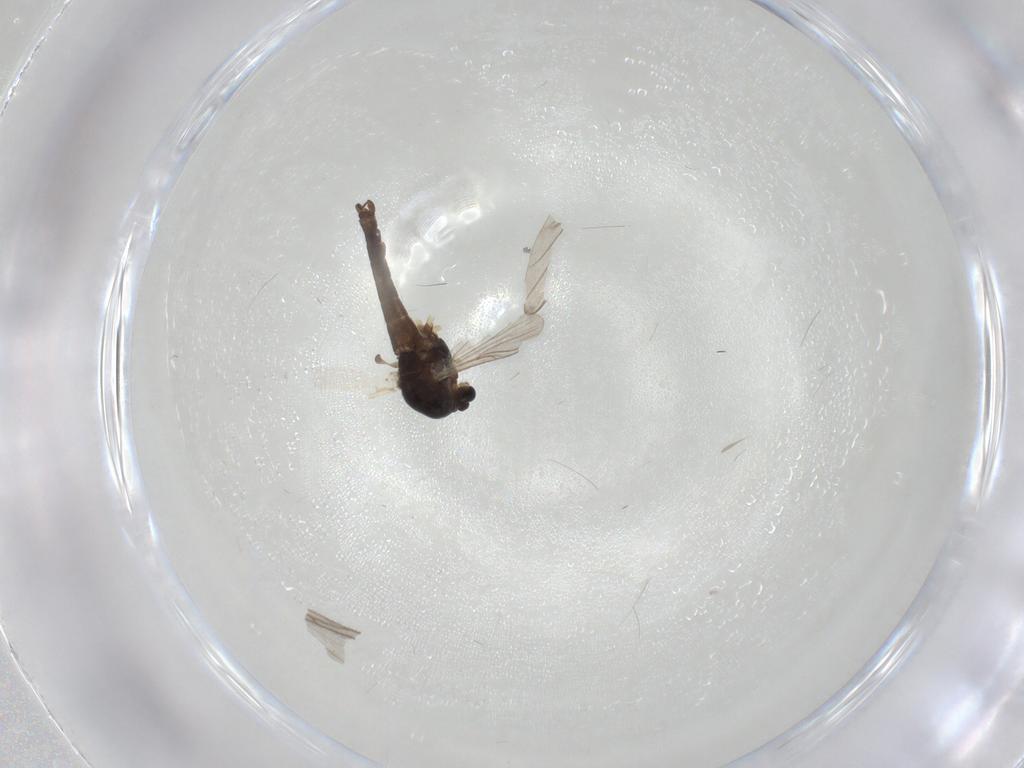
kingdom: Animalia
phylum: Arthropoda
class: Insecta
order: Diptera
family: Chironomidae
